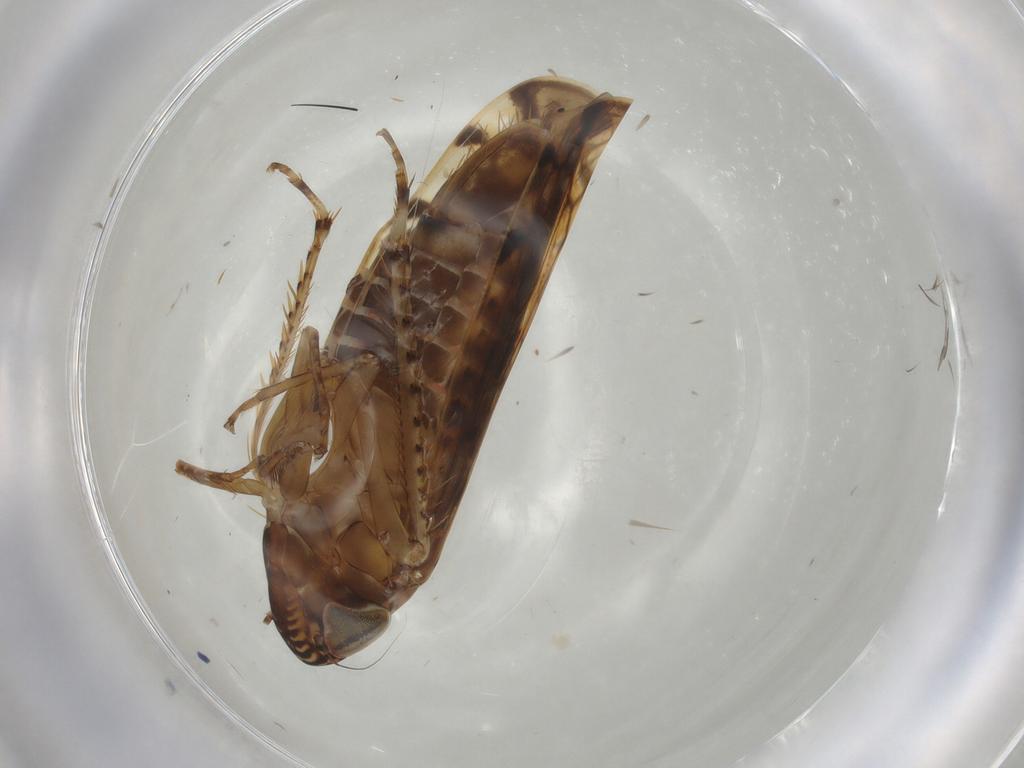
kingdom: Animalia
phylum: Arthropoda
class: Insecta
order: Hemiptera
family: Cicadellidae
